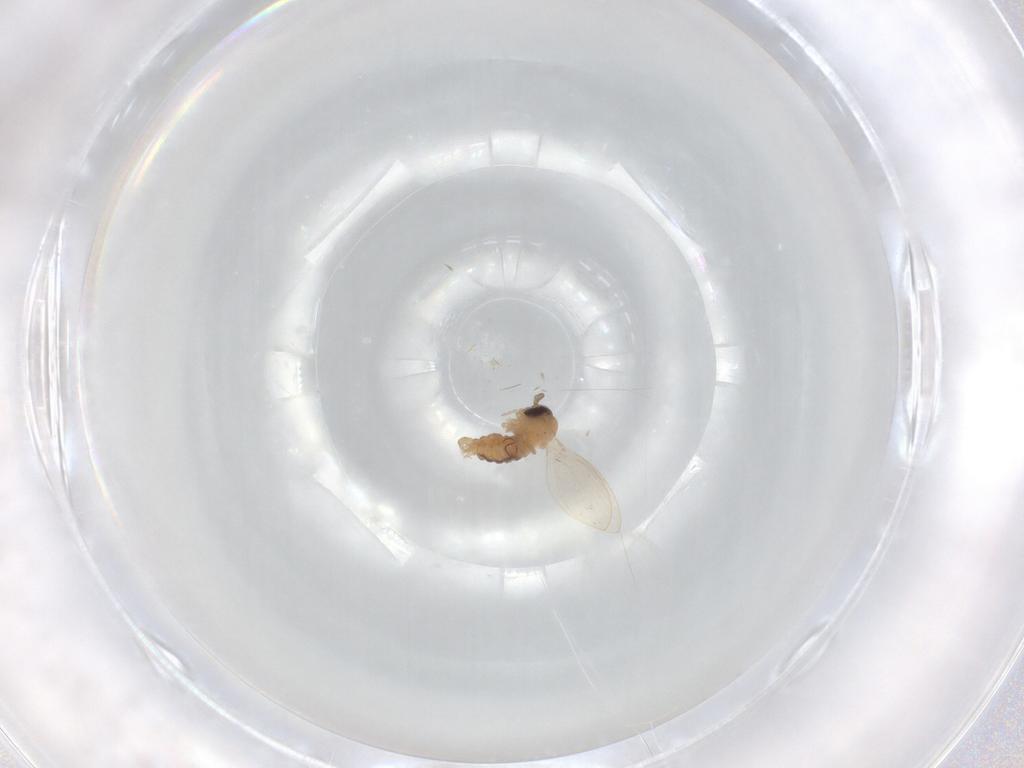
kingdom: Animalia
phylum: Arthropoda
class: Insecta
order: Diptera
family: Psychodidae
